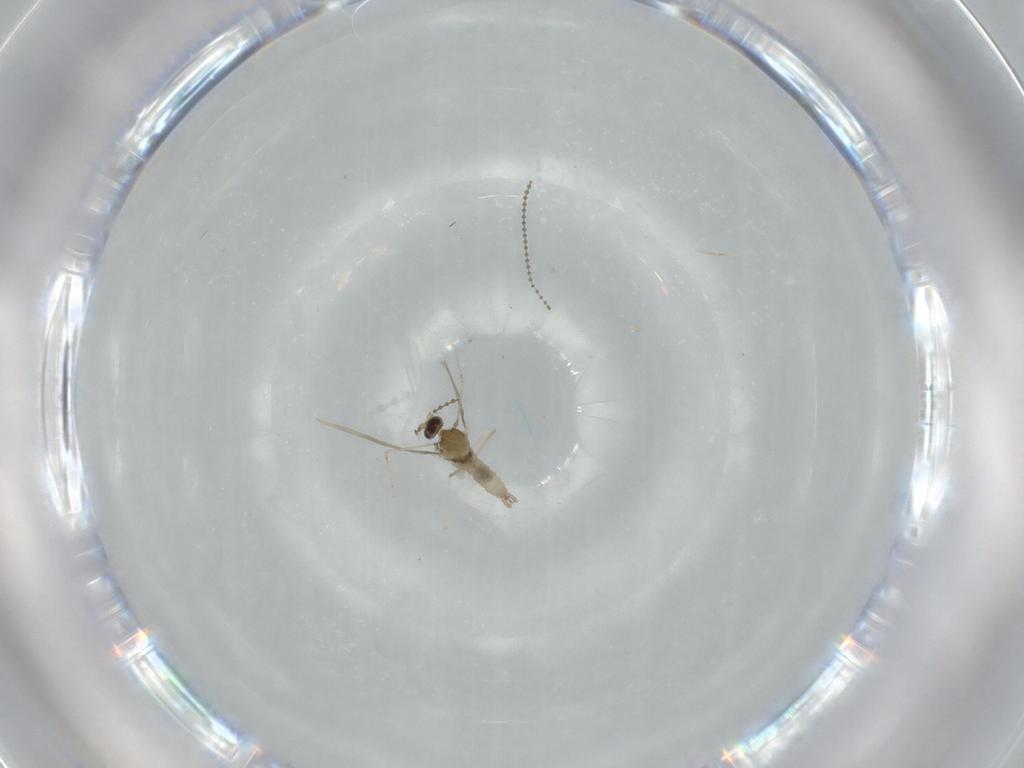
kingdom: Animalia
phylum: Arthropoda
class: Insecta
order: Diptera
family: Cecidomyiidae
